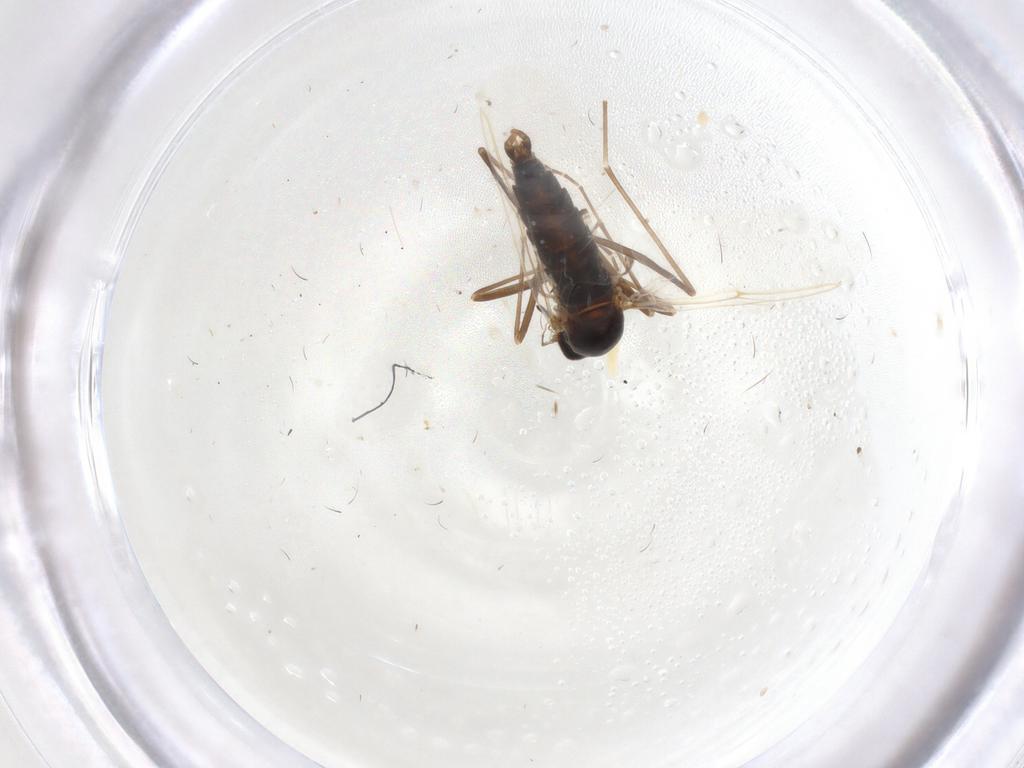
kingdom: Animalia
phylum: Arthropoda
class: Insecta
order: Diptera
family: Bombyliidae
